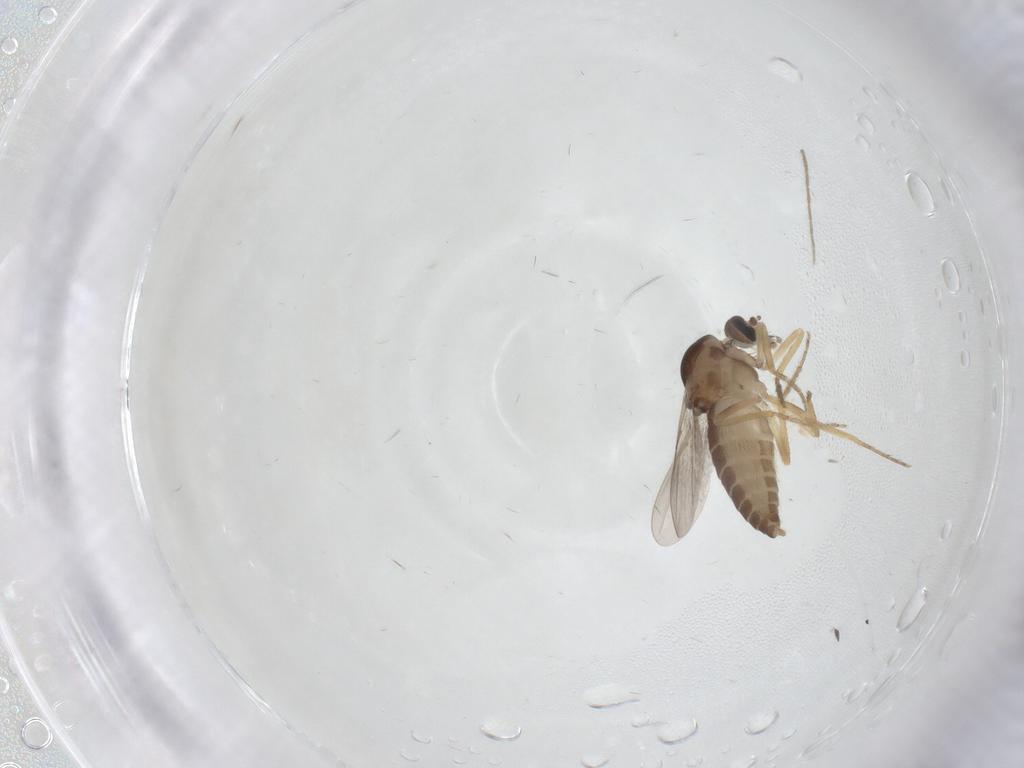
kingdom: Animalia
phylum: Arthropoda
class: Insecta
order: Diptera
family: Ceratopogonidae
